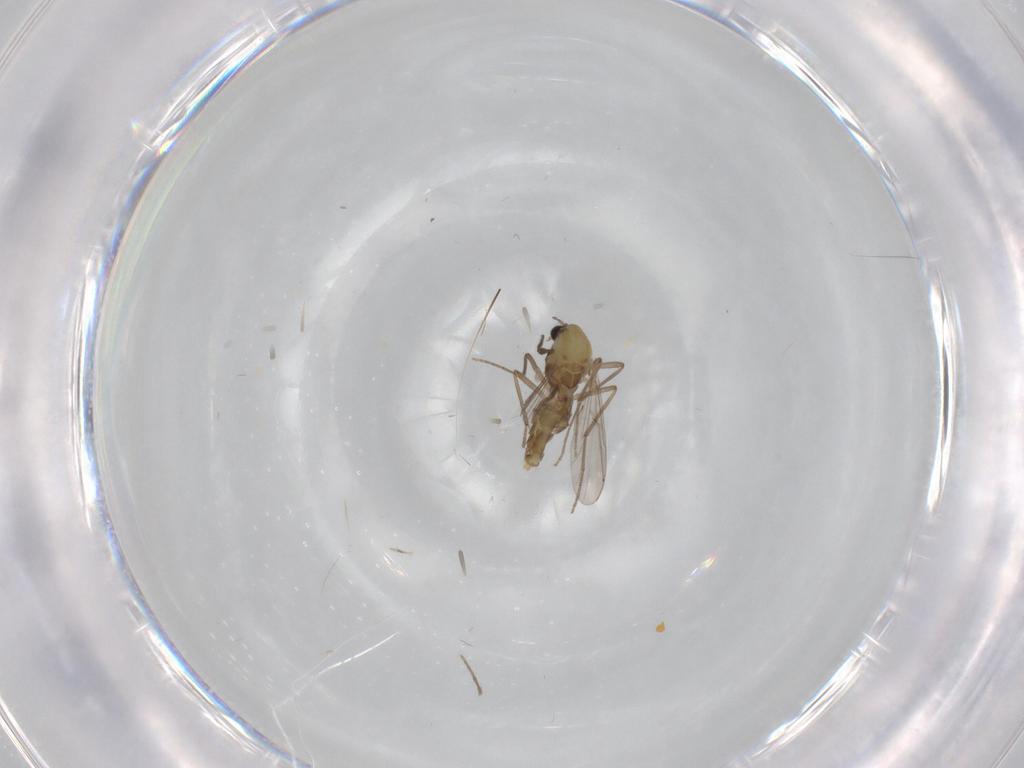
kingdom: Animalia
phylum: Arthropoda
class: Insecta
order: Diptera
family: Chironomidae
